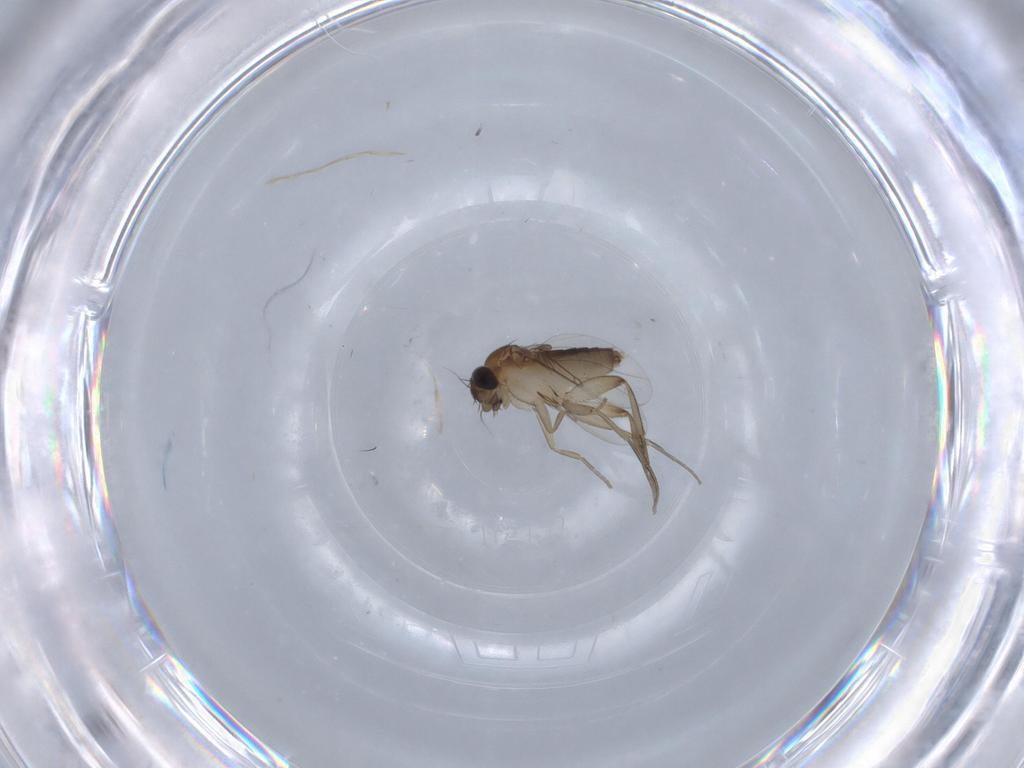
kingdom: Animalia
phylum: Arthropoda
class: Insecta
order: Diptera
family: Phoridae
